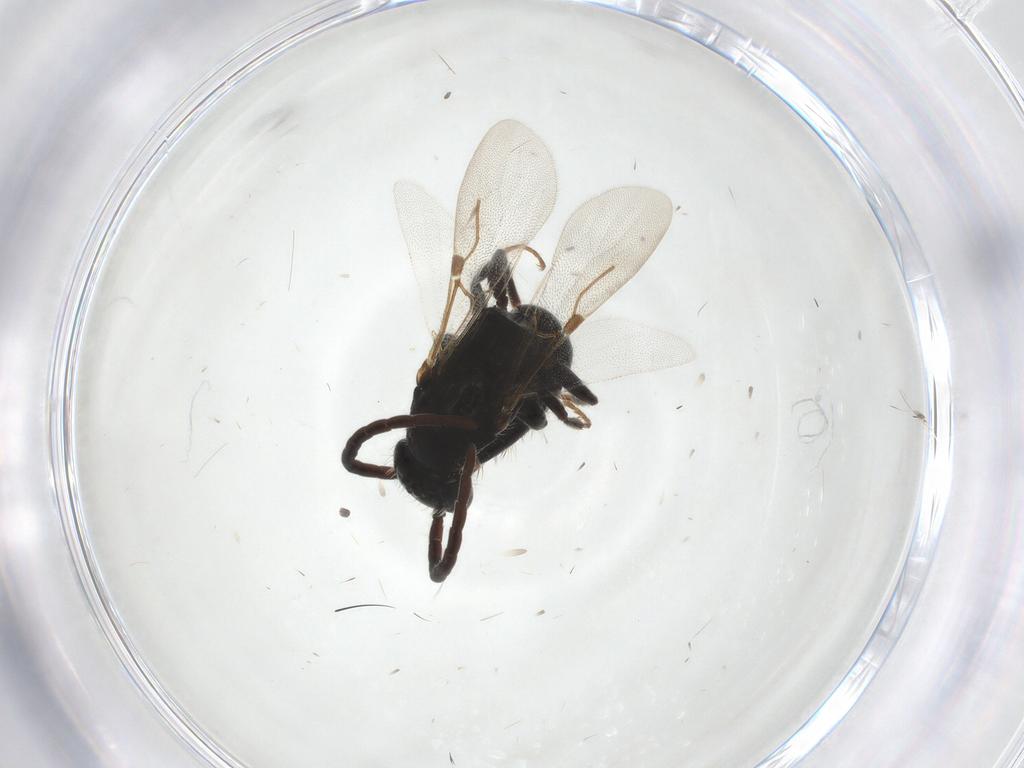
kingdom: Animalia
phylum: Arthropoda
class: Insecta
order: Hymenoptera
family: Bethylidae
